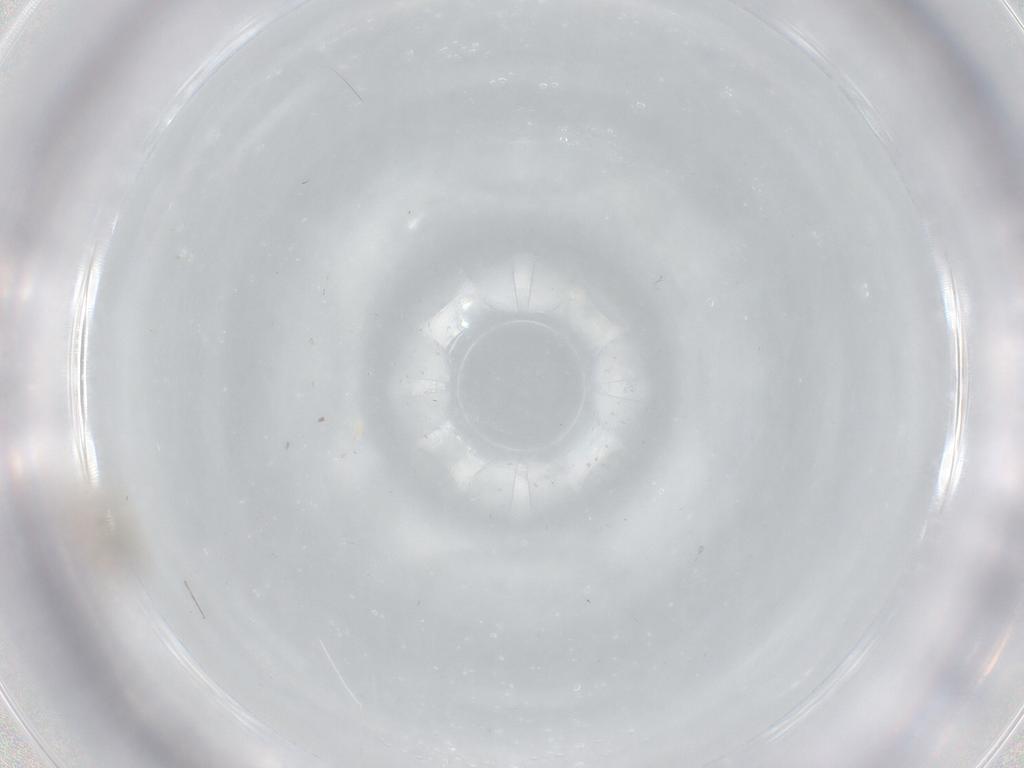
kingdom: Animalia
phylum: Arthropoda
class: Insecta
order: Diptera
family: Cecidomyiidae
